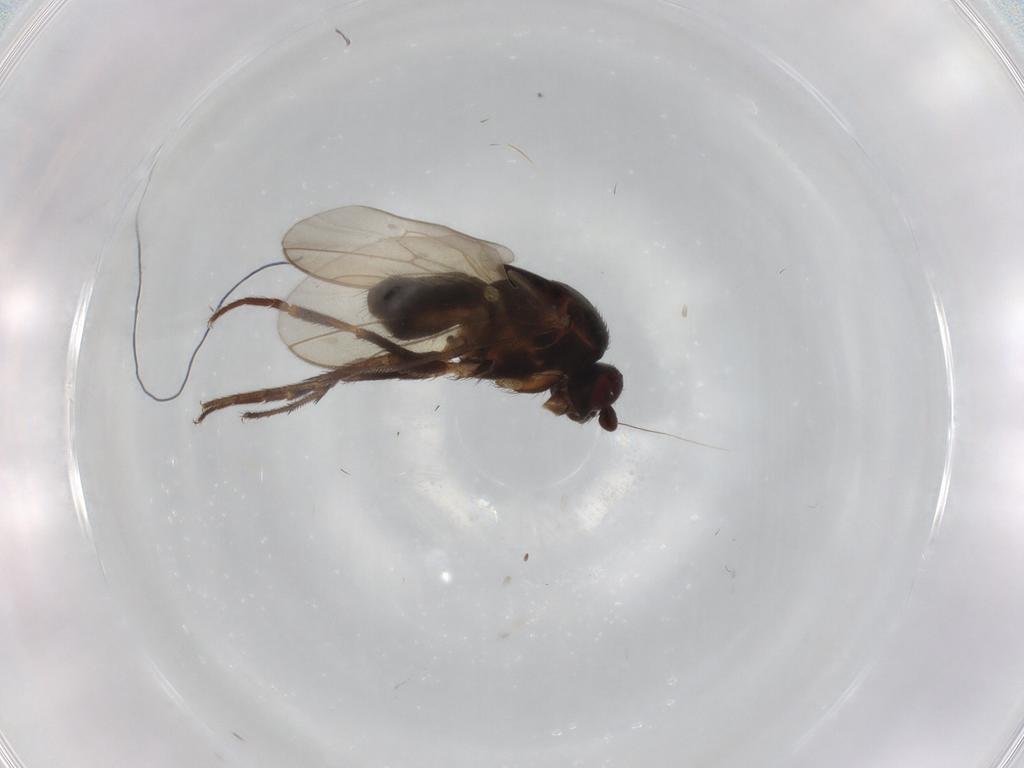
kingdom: Animalia
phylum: Arthropoda
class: Insecta
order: Diptera
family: Sphaeroceridae
